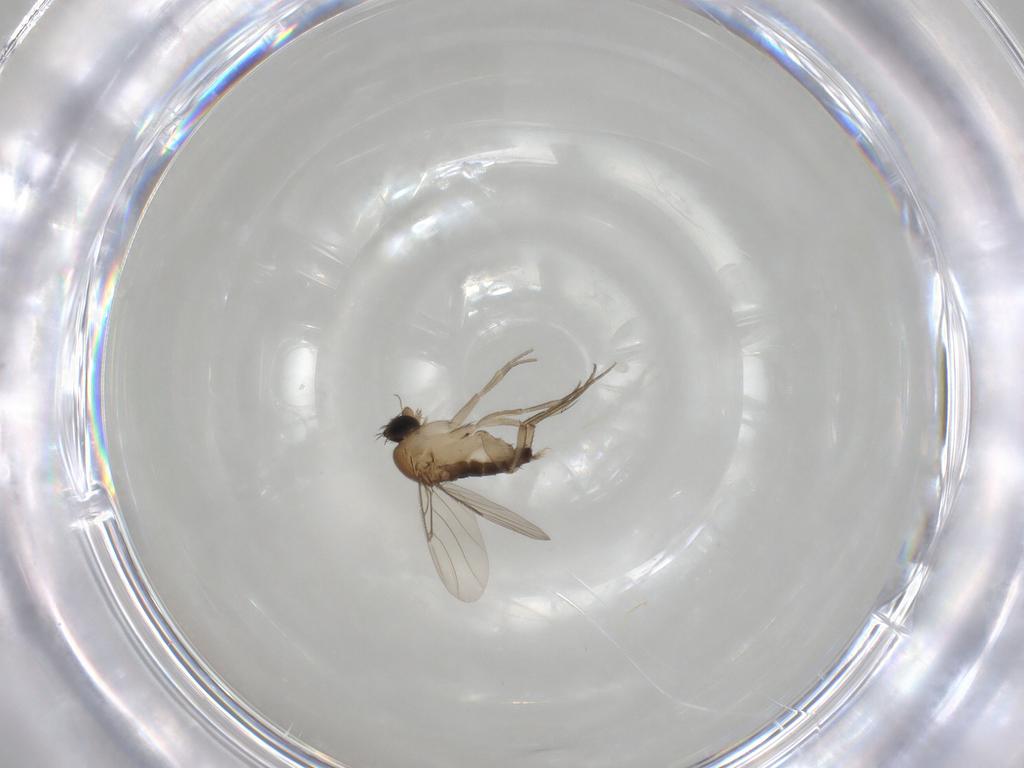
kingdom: Animalia
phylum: Arthropoda
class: Insecta
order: Diptera
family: Phoridae
